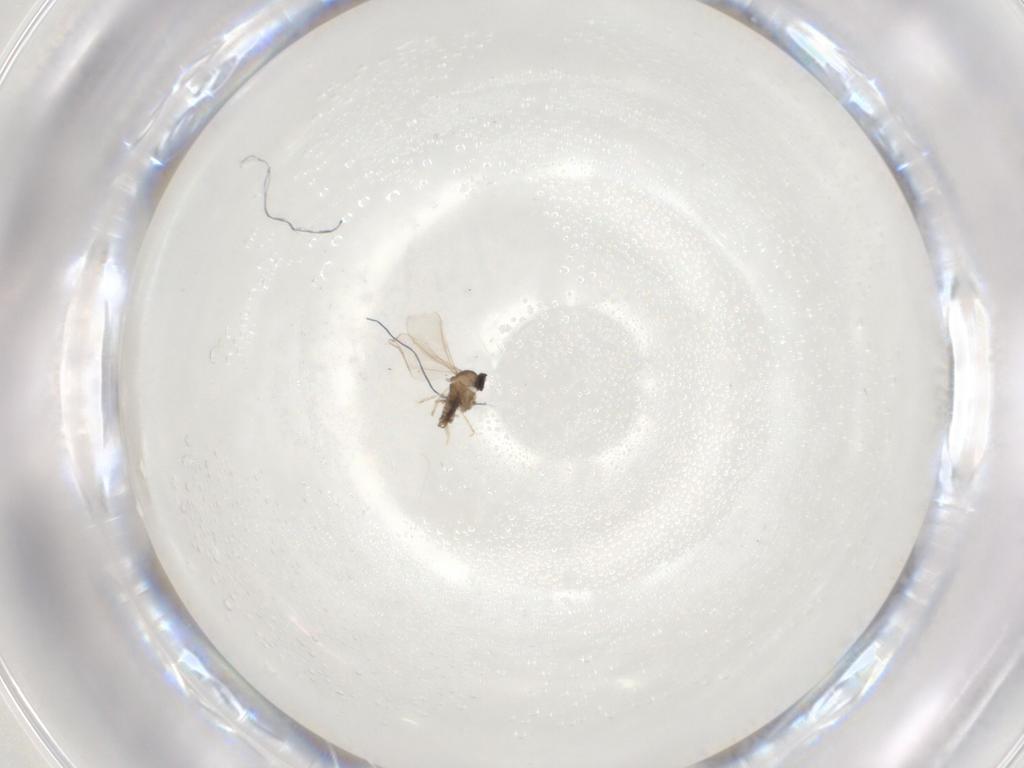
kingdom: Animalia
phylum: Arthropoda
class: Insecta
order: Diptera
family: Cecidomyiidae
